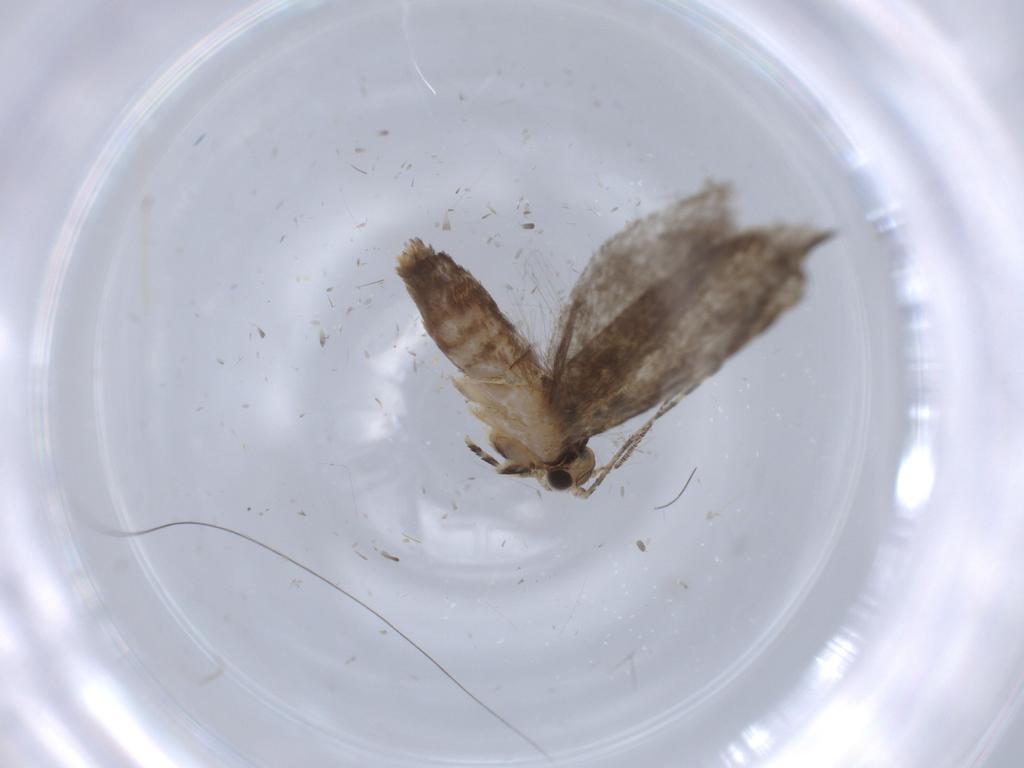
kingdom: Animalia
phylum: Arthropoda
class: Insecta
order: Lepidoptera
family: Tineidae
